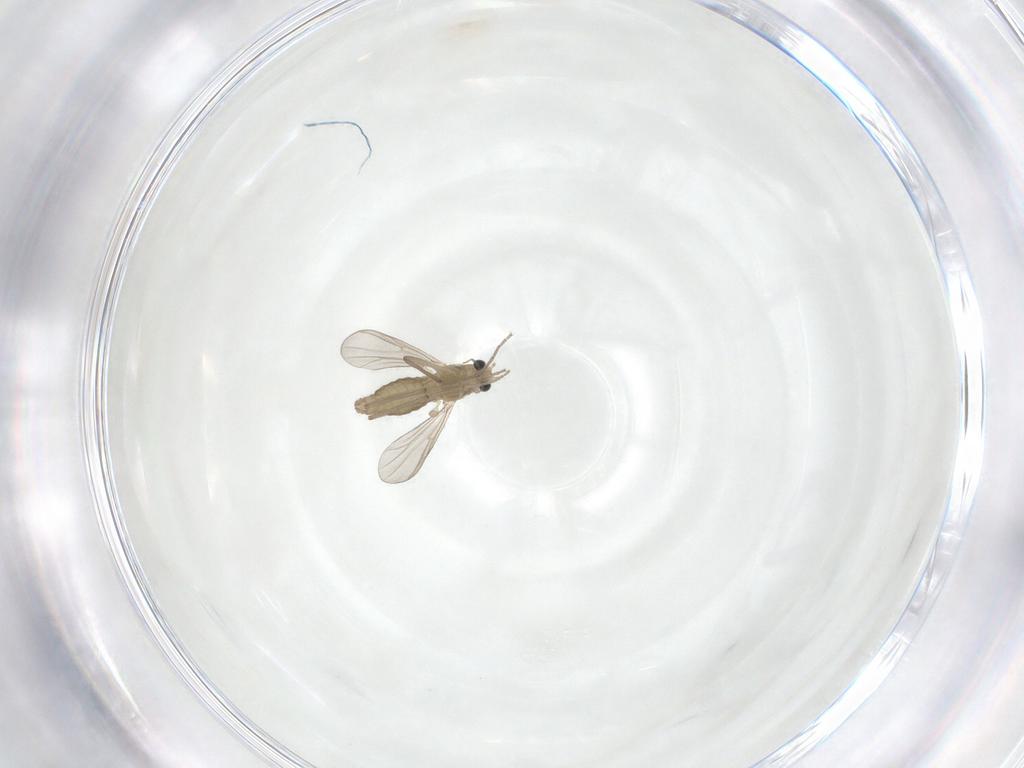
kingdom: Animalia
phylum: Arthropoda
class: Insecta
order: Diptera
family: Chironomidae
